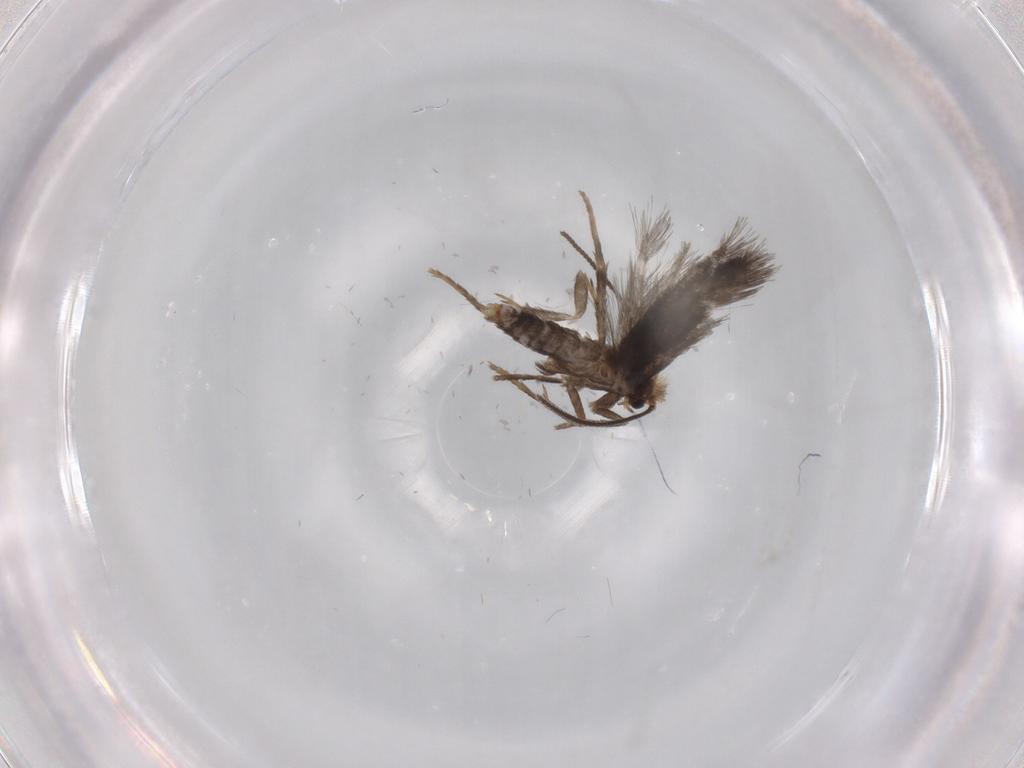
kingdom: Animalia
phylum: Arthropoda
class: Insecta
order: Lepidoptera
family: Nepticulidae
